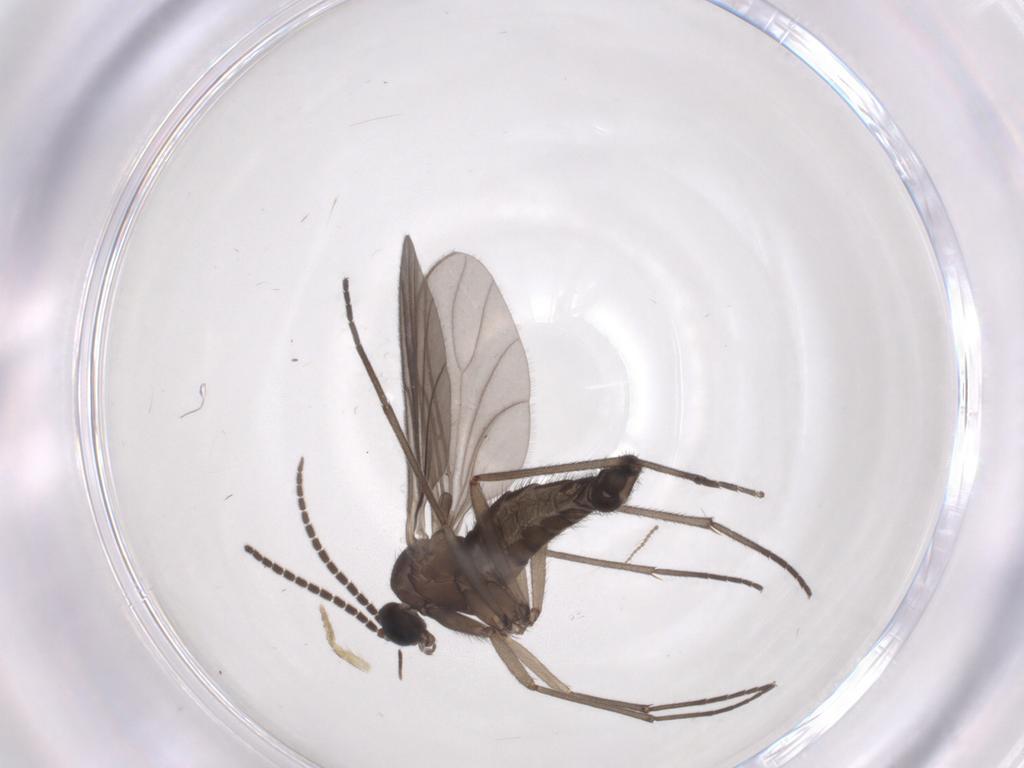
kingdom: Animalia
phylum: Arthropoda
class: Insecta
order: Diptera
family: Sciaridae
